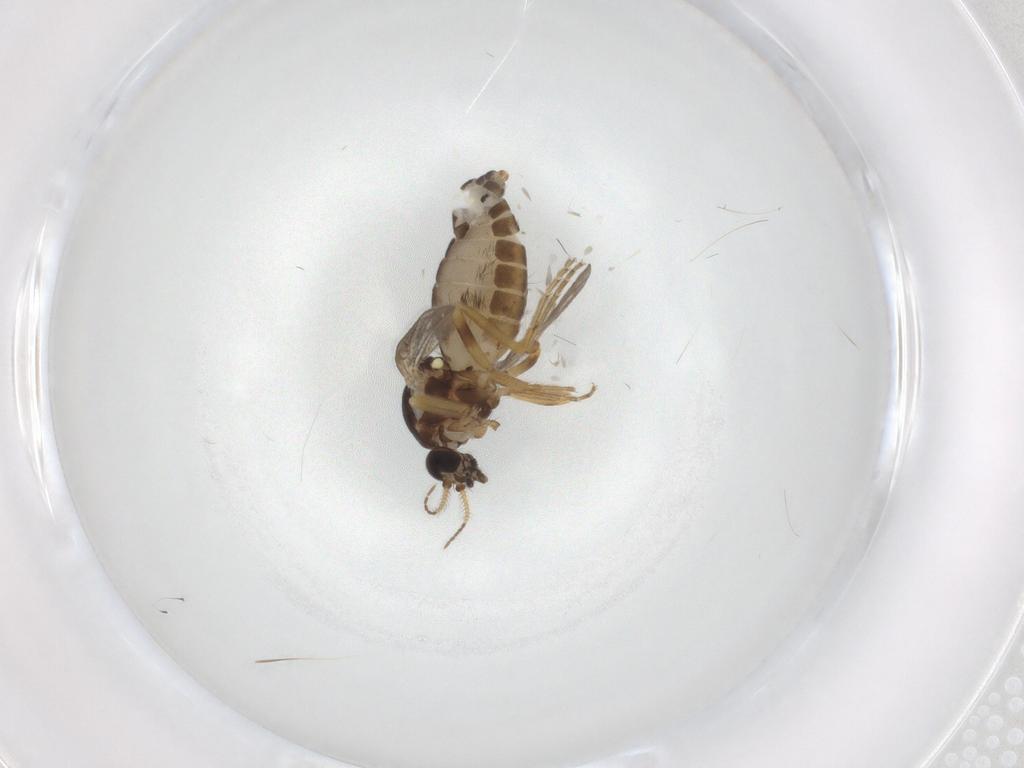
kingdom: Animalia
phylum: Arthropoda
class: Insecta
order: Diptera
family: Ceratopogonidae
